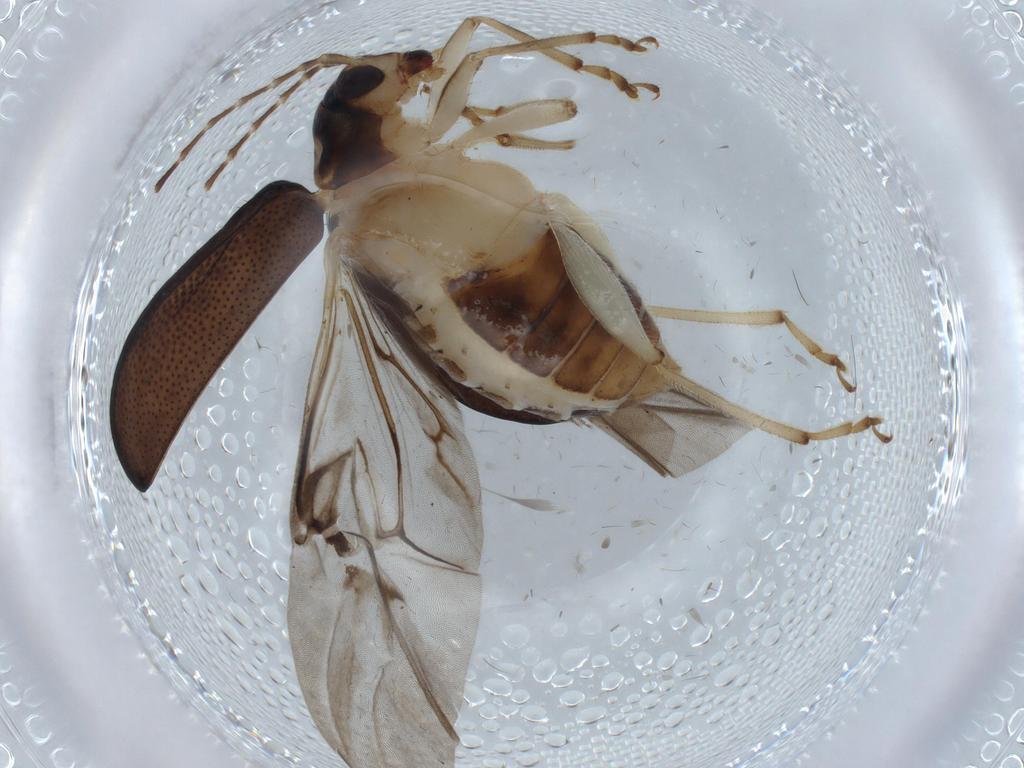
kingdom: Animalia
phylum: Arthropoda
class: Insecta
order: Coleoptera
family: Chrysomelidae
